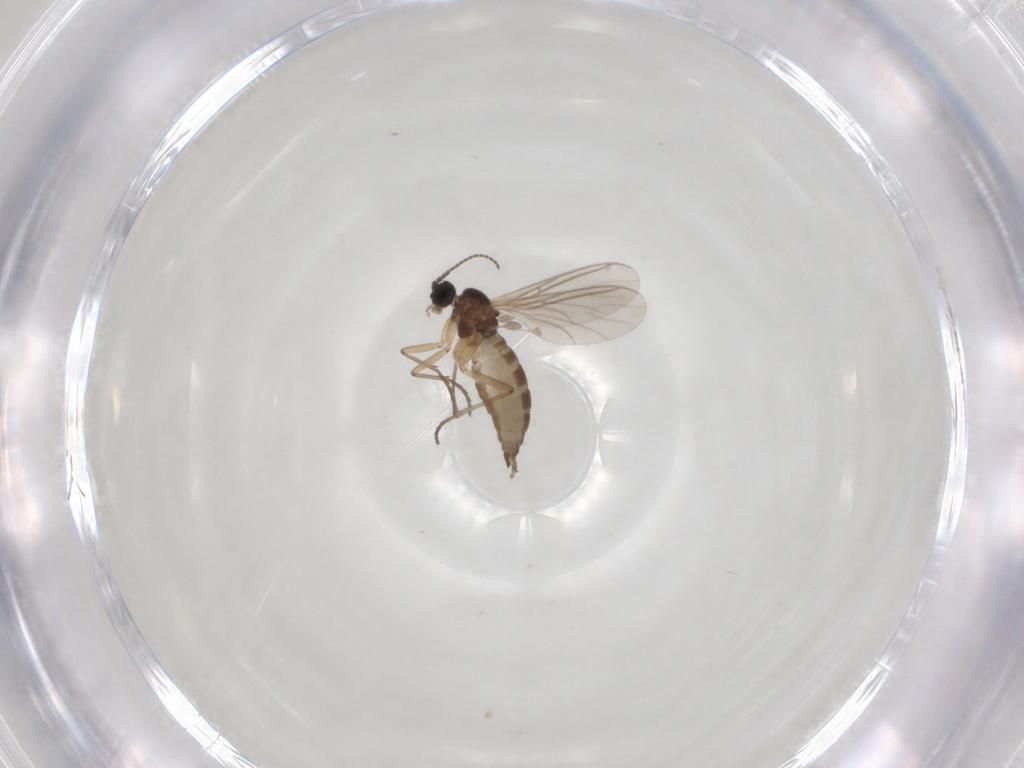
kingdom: Animalia
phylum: Arthropoda
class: Insecta
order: Diptera
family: Sciaridae
